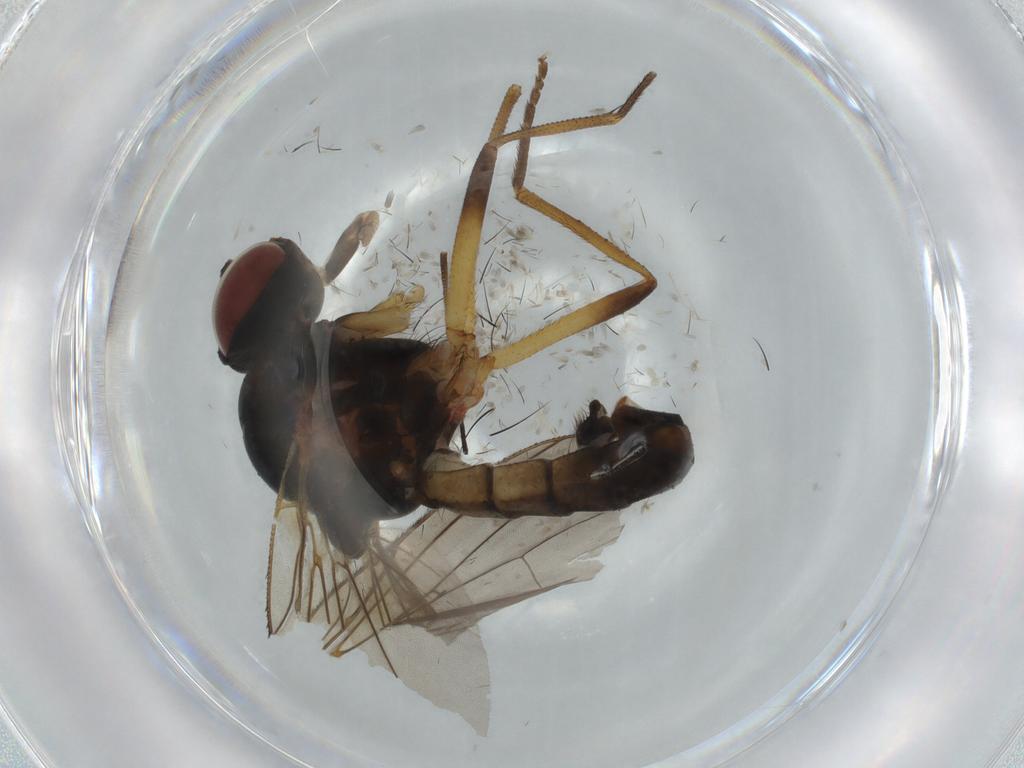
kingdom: Animalia
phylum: Arthropoda
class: Insecta
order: Diptera
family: Anthomyiidae
